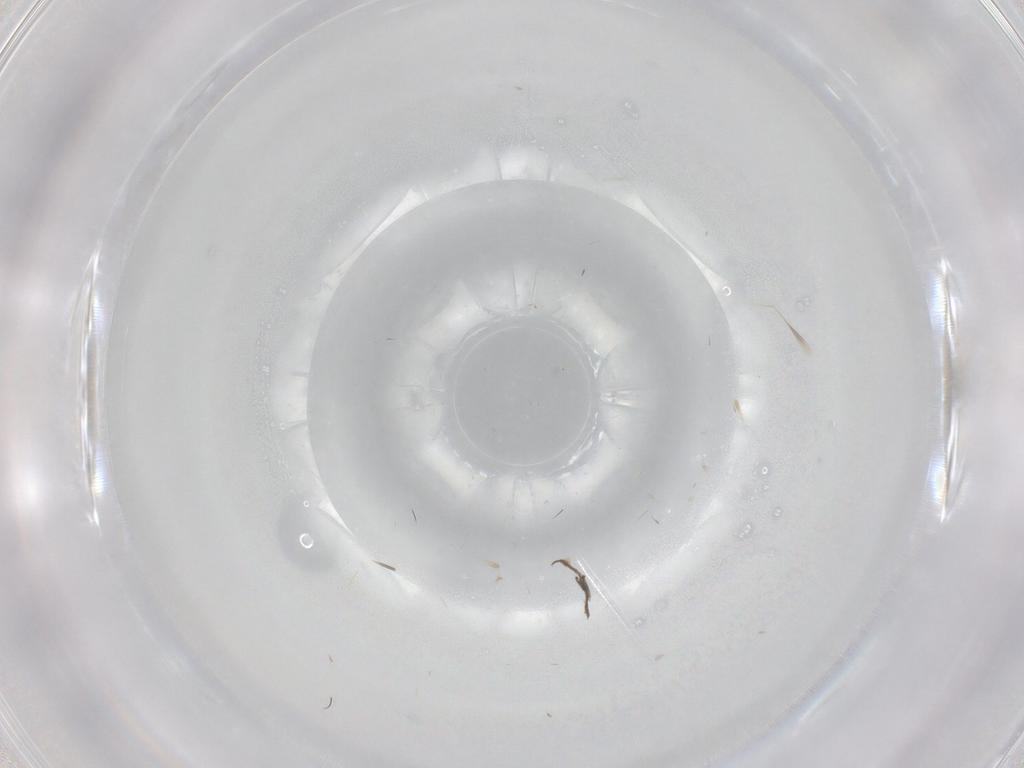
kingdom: Animalia
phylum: Arthropoda
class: Insecta
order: Diptera
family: Cecidomyiidae
